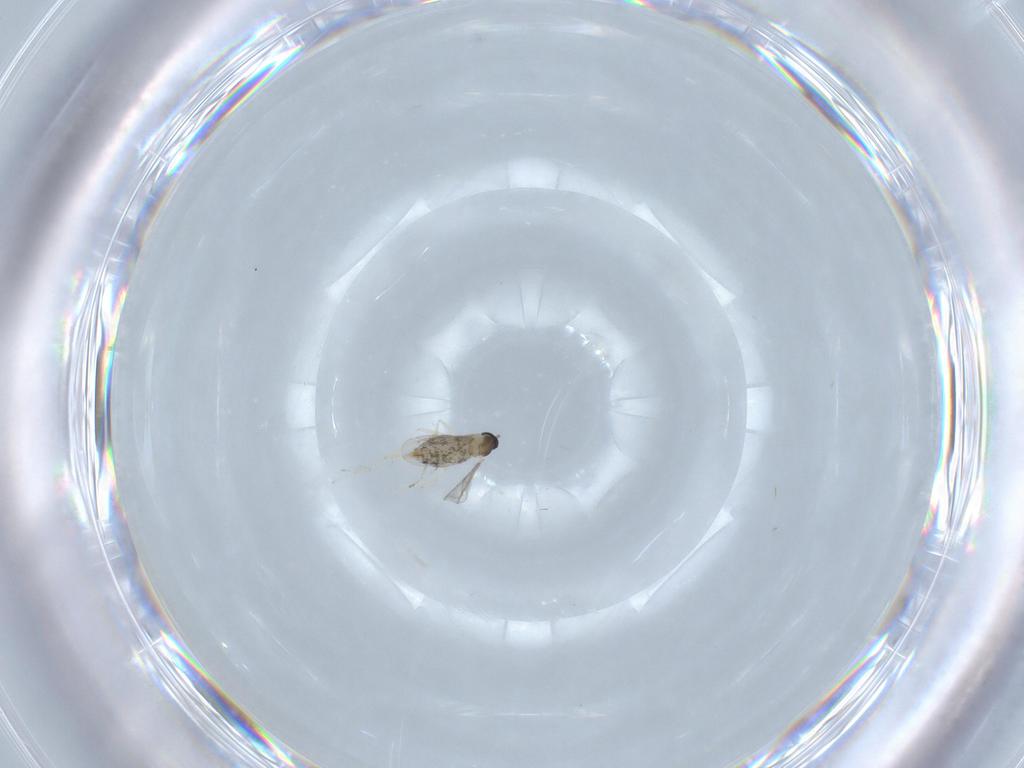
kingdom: Animalia
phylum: Arthropoda
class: Insecta
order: Diptera
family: Cecidomyiidae
